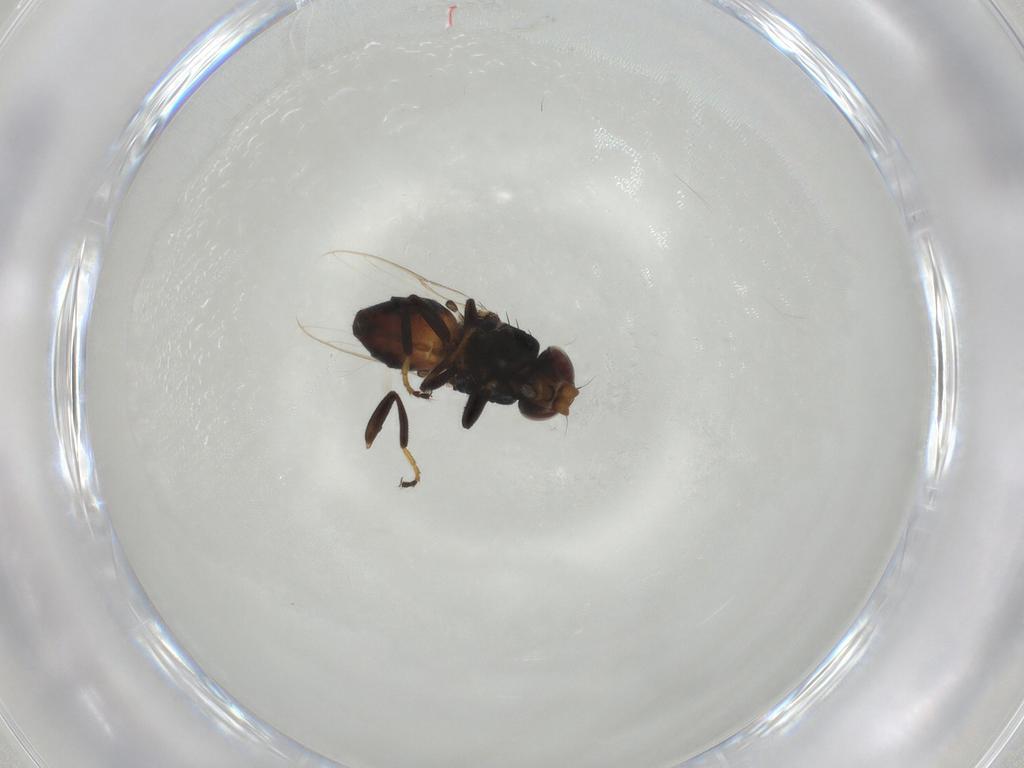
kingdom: Animalia
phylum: Arthropoda
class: Insecta
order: Diptera
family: Chloropidae
